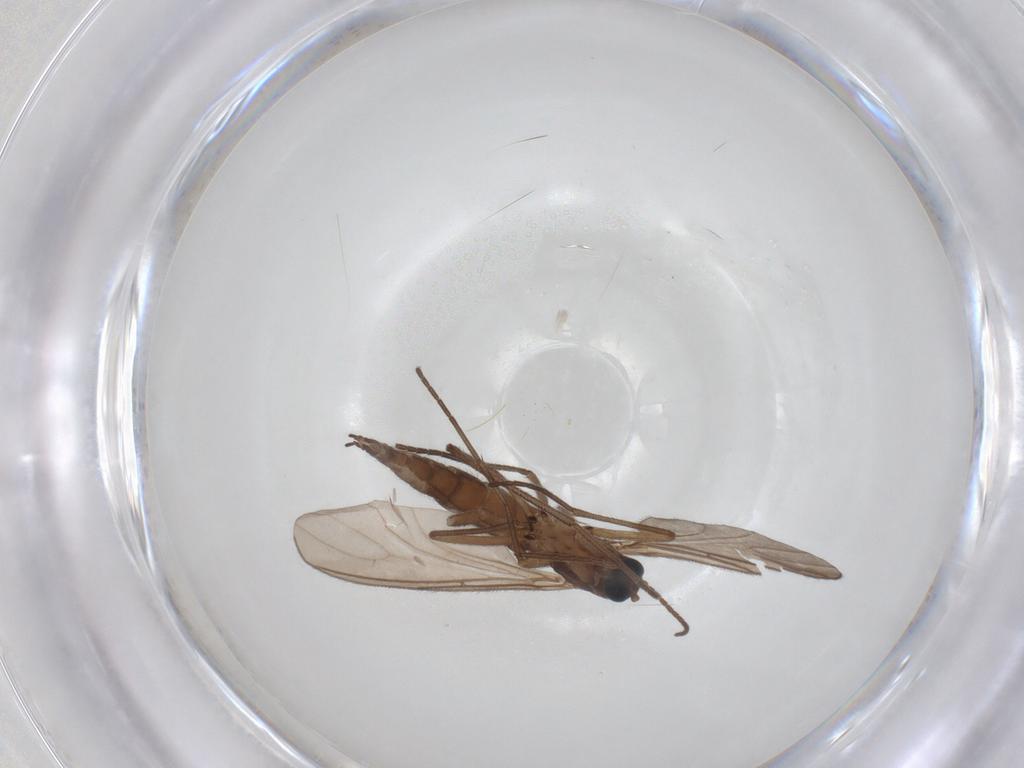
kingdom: Animalia
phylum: Arthropoda
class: Insecta
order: Diptera
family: Sciaridae
